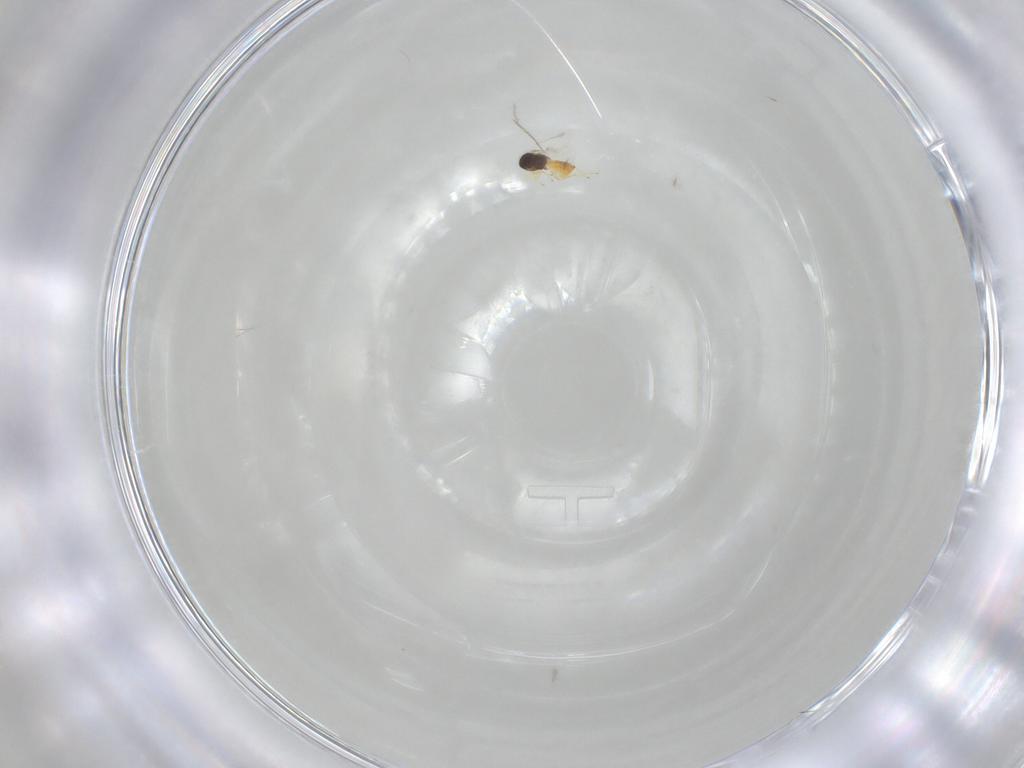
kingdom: Animalia
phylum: Arthropoda
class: Insecta
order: Hymenoptera
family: Eulophidae
